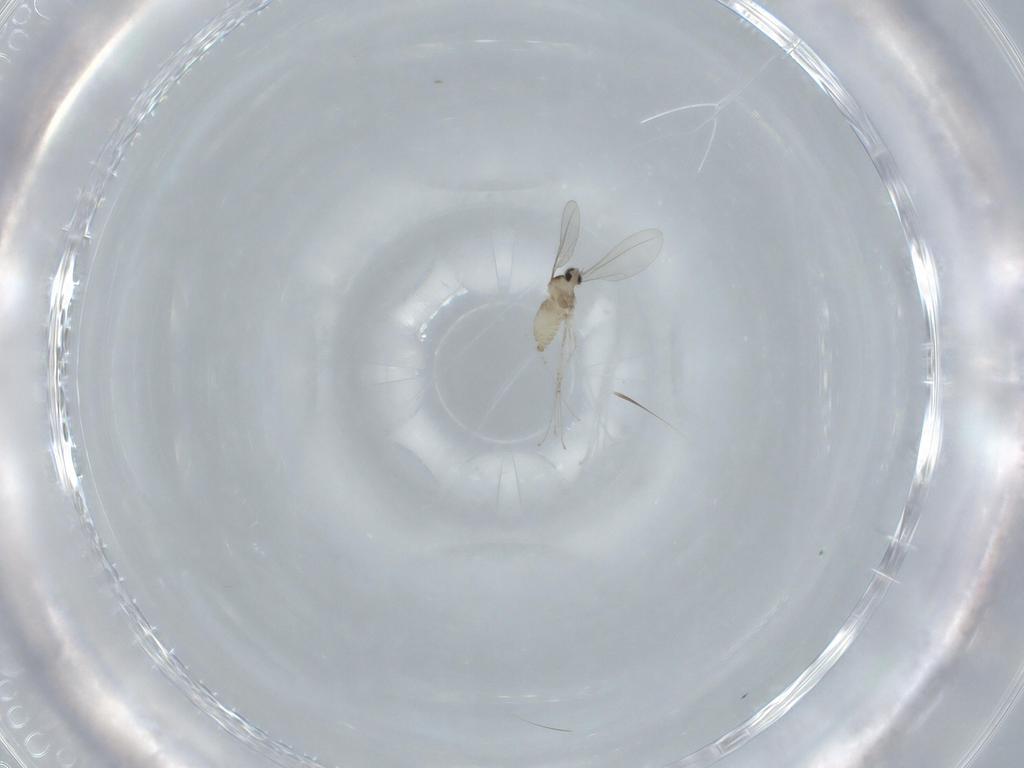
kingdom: Animalia
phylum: Arthropoda
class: Insecta
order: Diptera
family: Cecidomyiidae
